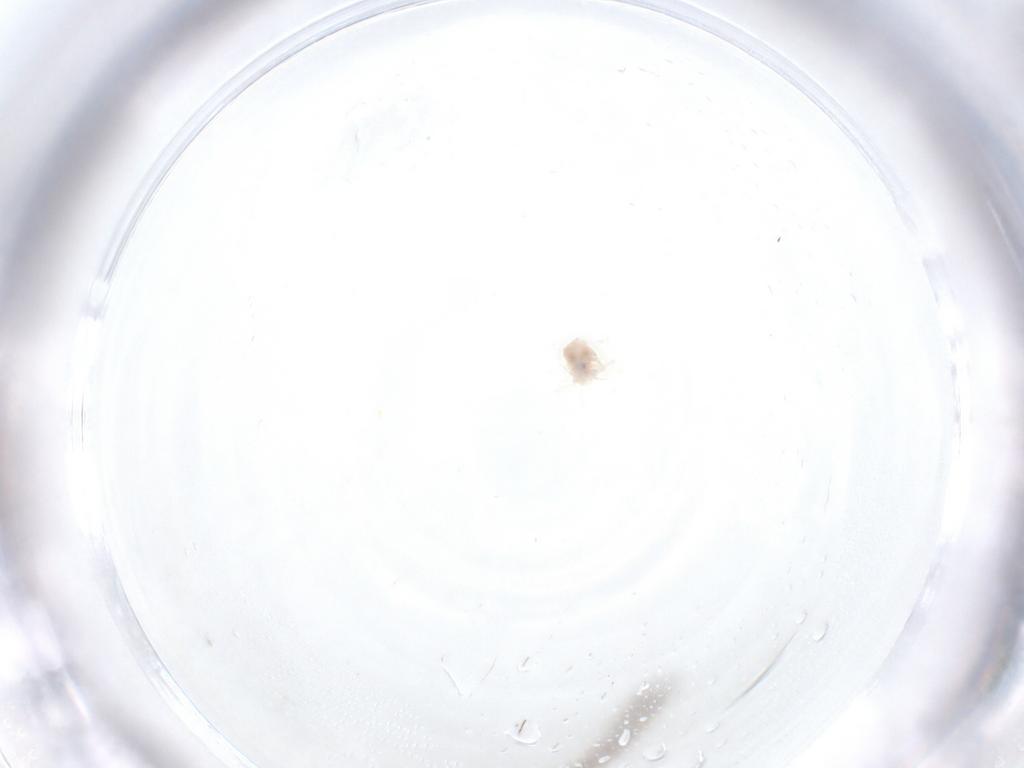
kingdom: Animalia
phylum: Arthropoda
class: Arachnida
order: Trombidiformes
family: Anystidae
